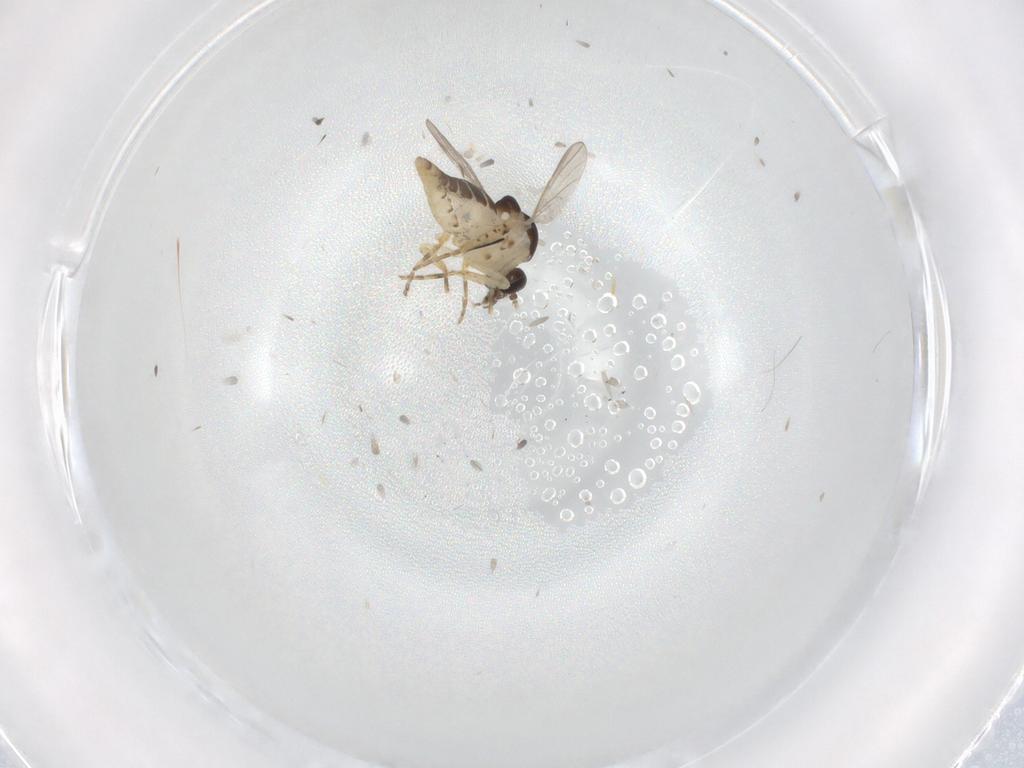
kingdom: Animalia
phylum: Arthropoda
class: Insecta
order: Diptera
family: Ceratopogonidae
